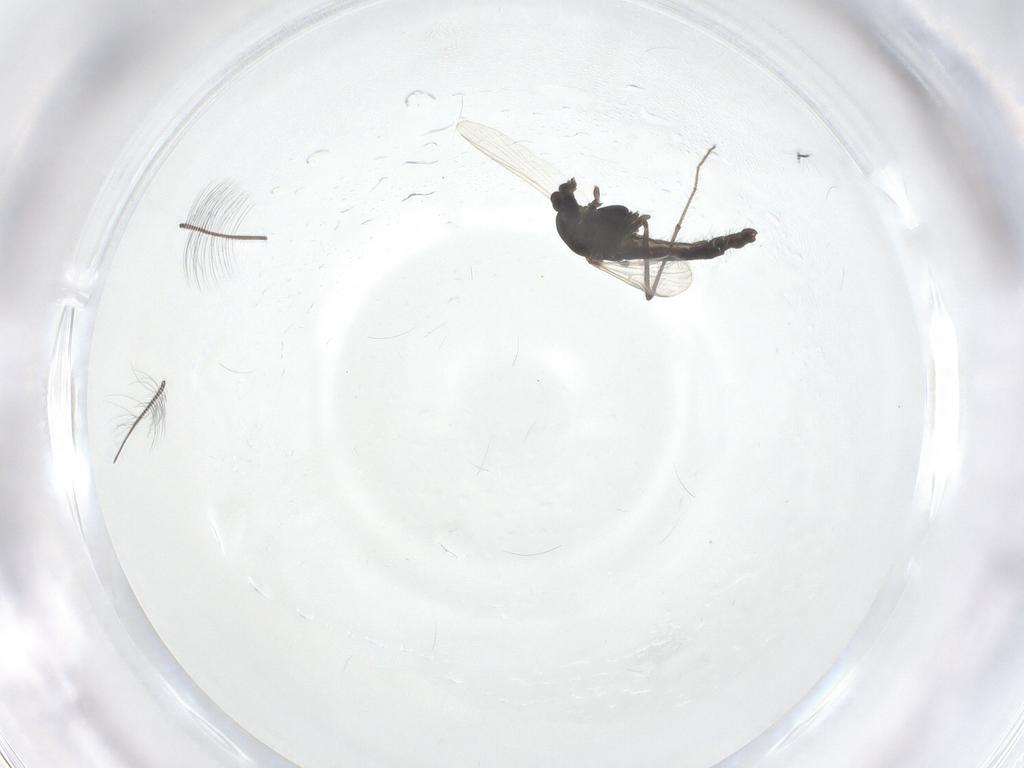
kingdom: Animalia
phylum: Arthropoda
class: Insecta
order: Diptera
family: Chironomidae
